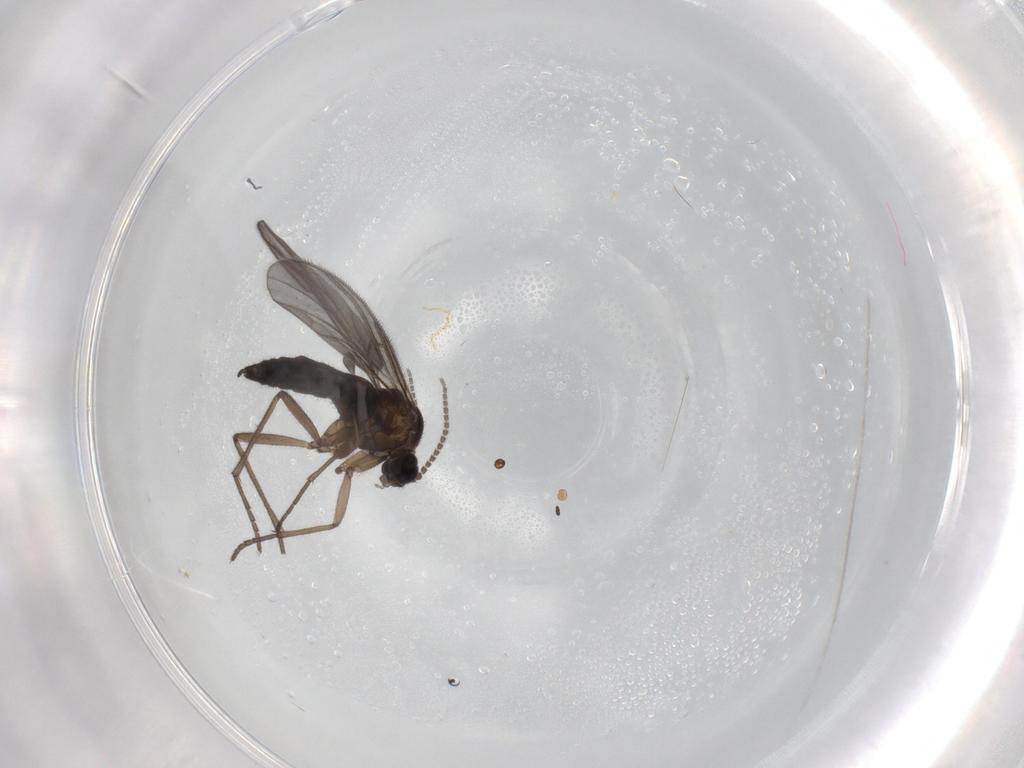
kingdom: Animalia
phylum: Arthropoda
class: Insecta
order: Diptera
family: Sciaridae
